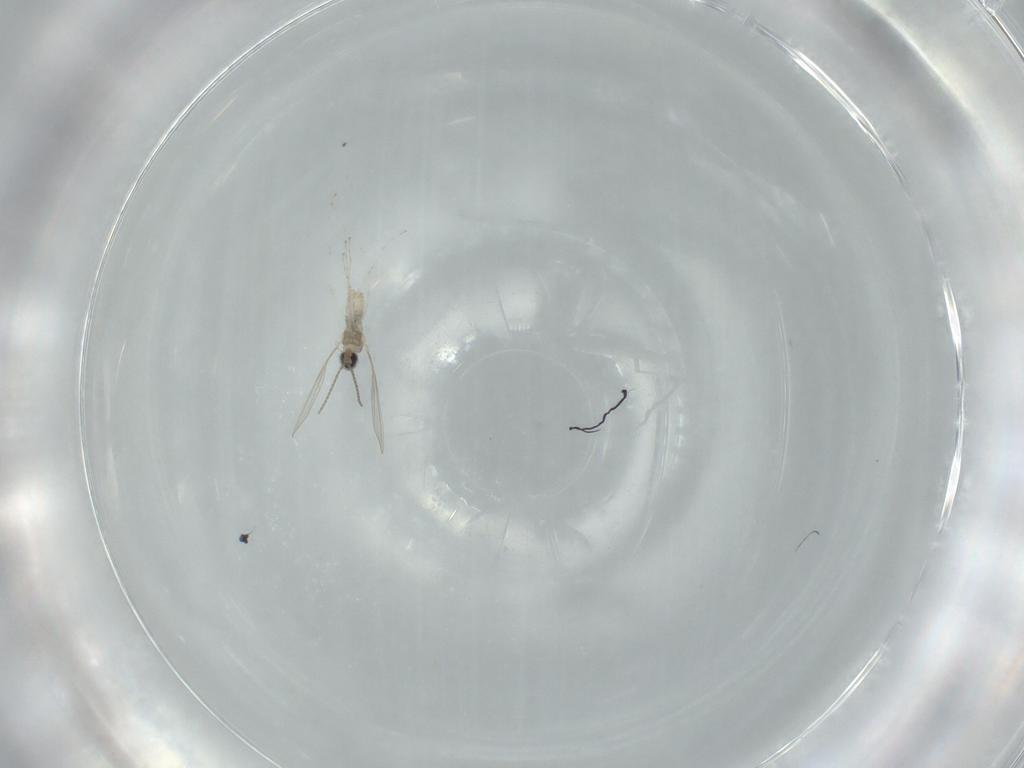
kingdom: Animalia
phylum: Arthropoda
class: Insecta
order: Diptera
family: Cecidomyiidae
